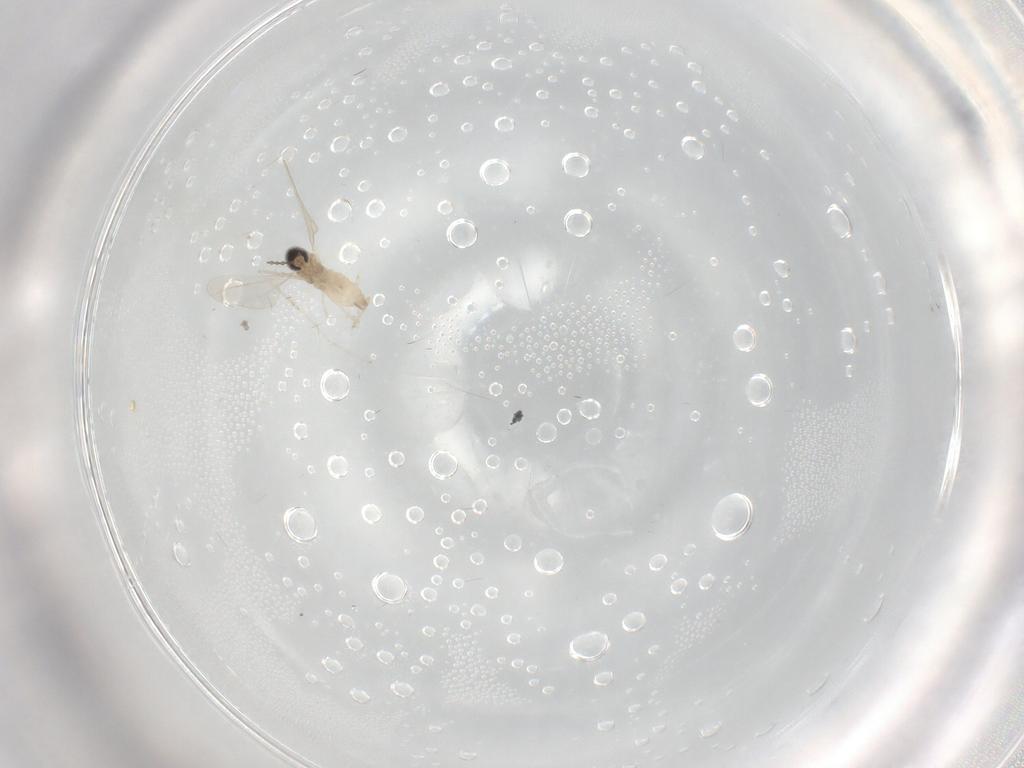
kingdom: Animalia
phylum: Arthropoda
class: Insecta
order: Diptera
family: Cecidomyiidae
